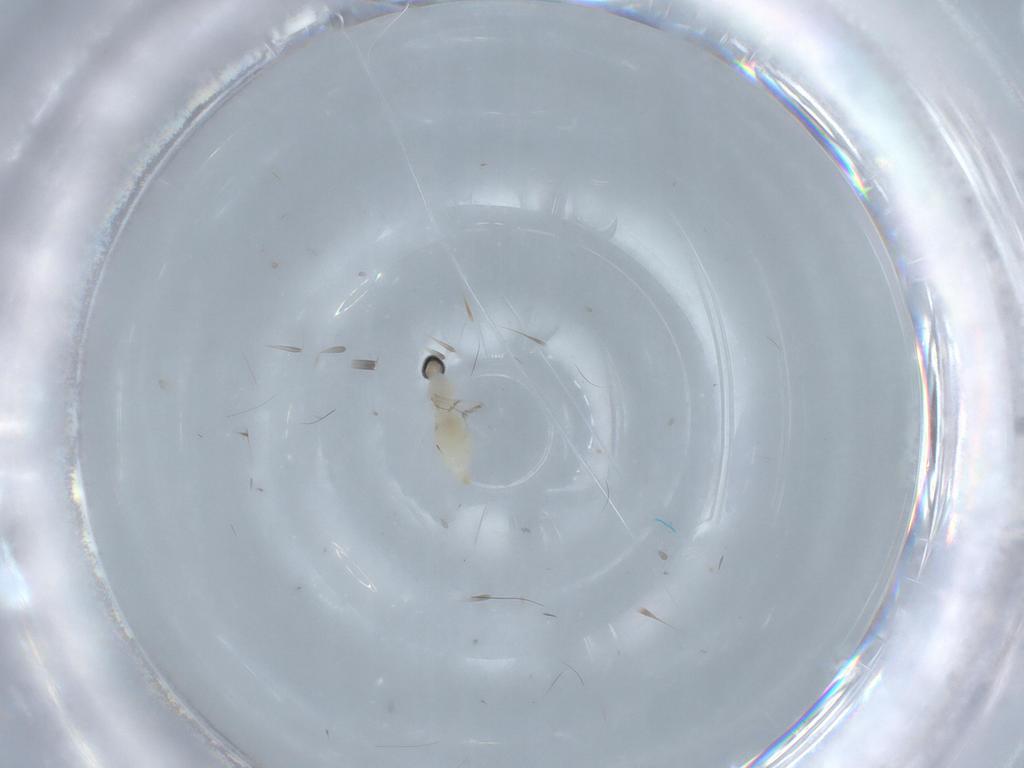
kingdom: Animalia
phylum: Arthropoda
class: Insecta
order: Diptera
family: Cecidomyiidae
